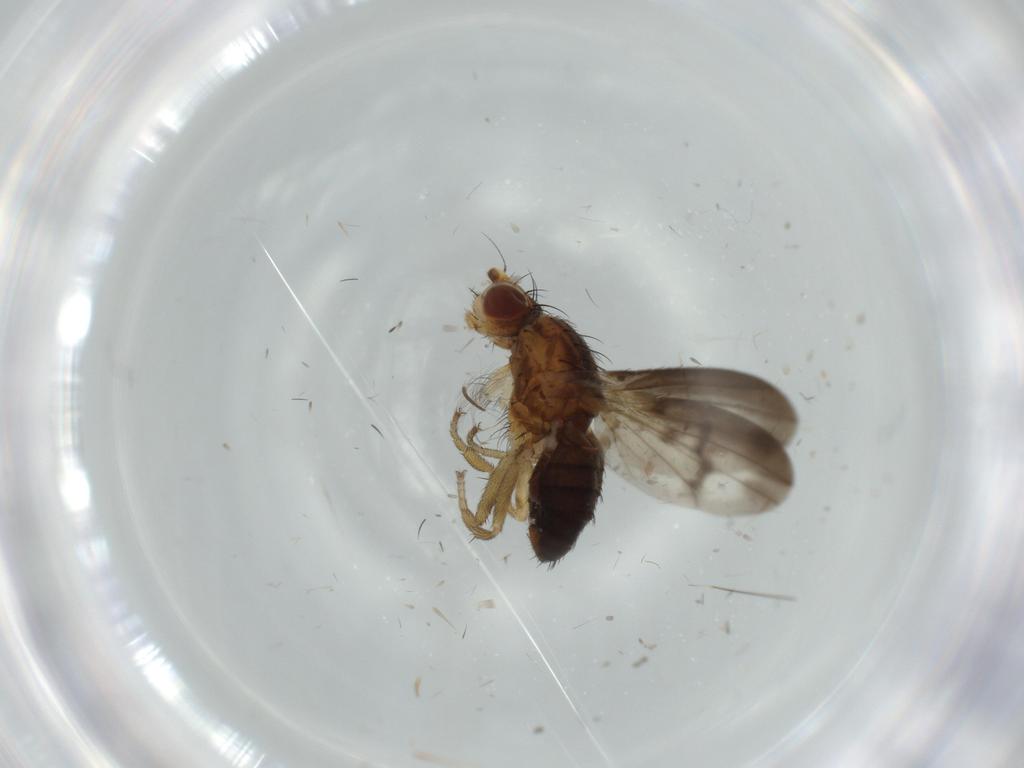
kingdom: Animalia
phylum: Arthropoda
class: Insecta
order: Diptera
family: Heleomyzidae
